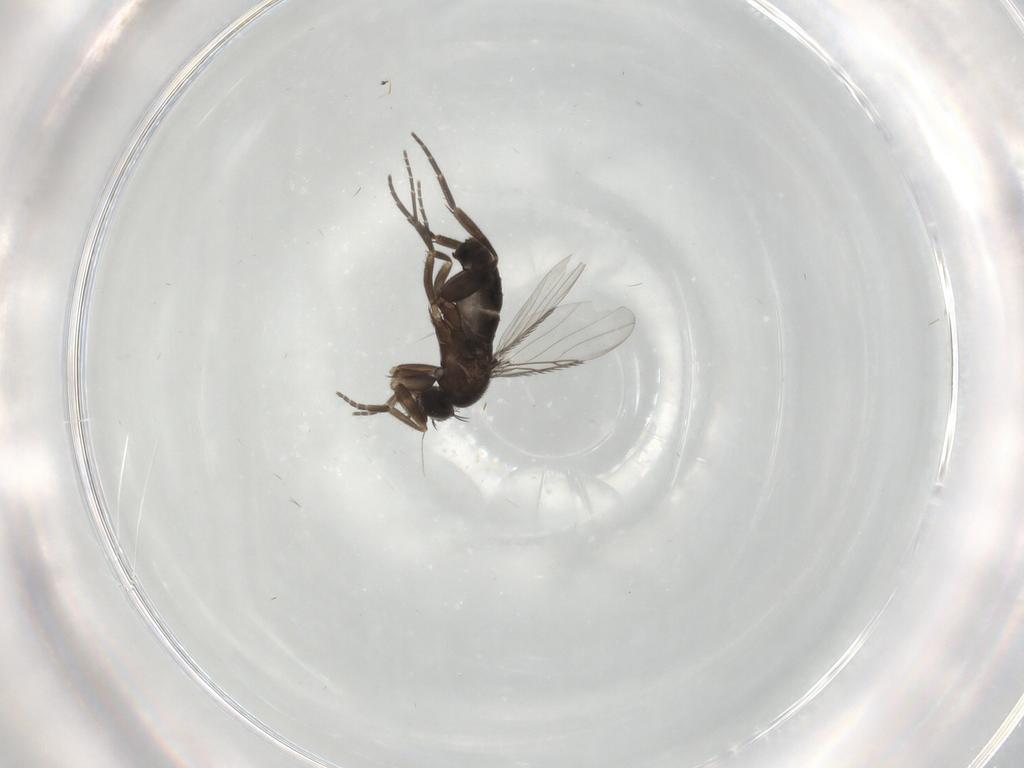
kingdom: Animalia
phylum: Arthropoda
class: Insecta
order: Diptera
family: Phoridae
